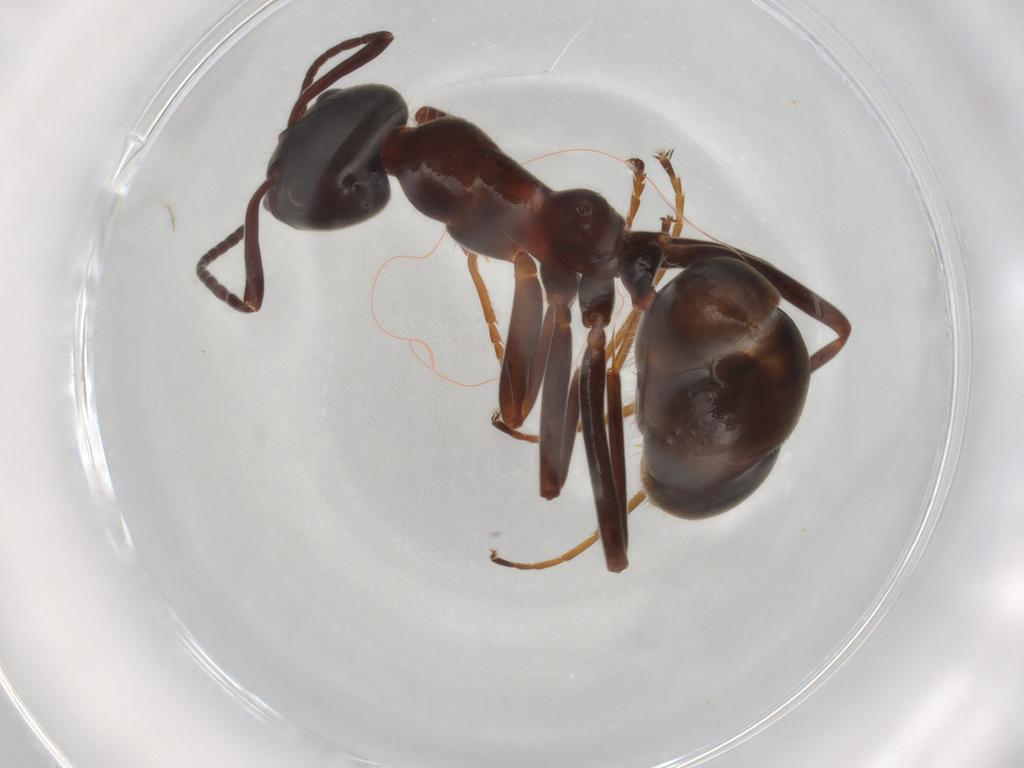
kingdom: Animalia
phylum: Arthropoda
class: Insecta
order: Hymenoptera
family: Formicidae
